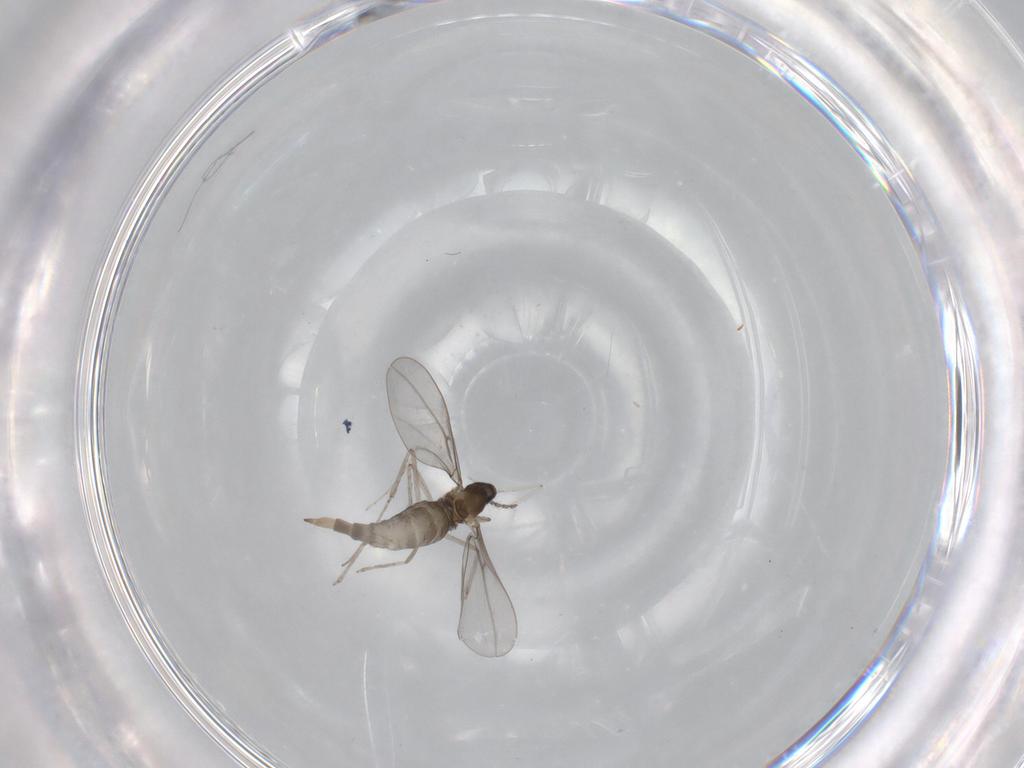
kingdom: Animalia
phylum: Arthropoda
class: Insecta
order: Diptera
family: Cecidomyiidae
